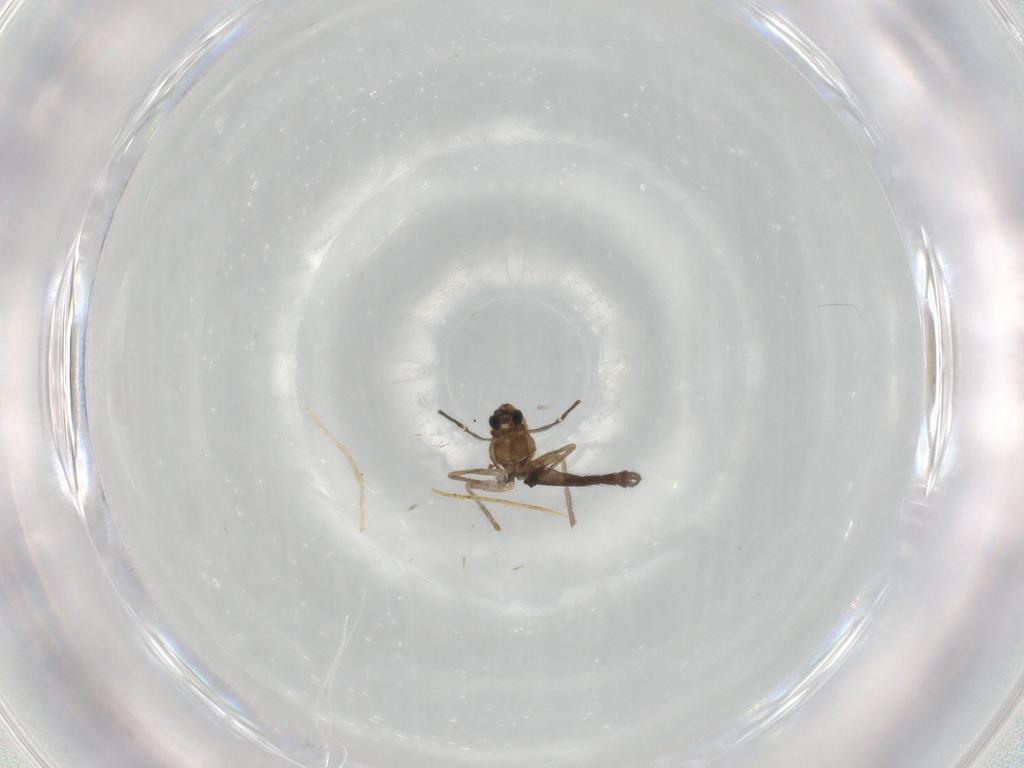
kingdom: Animalia
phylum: Arthropoda
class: Insecta
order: Diptera
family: Chironomidae
